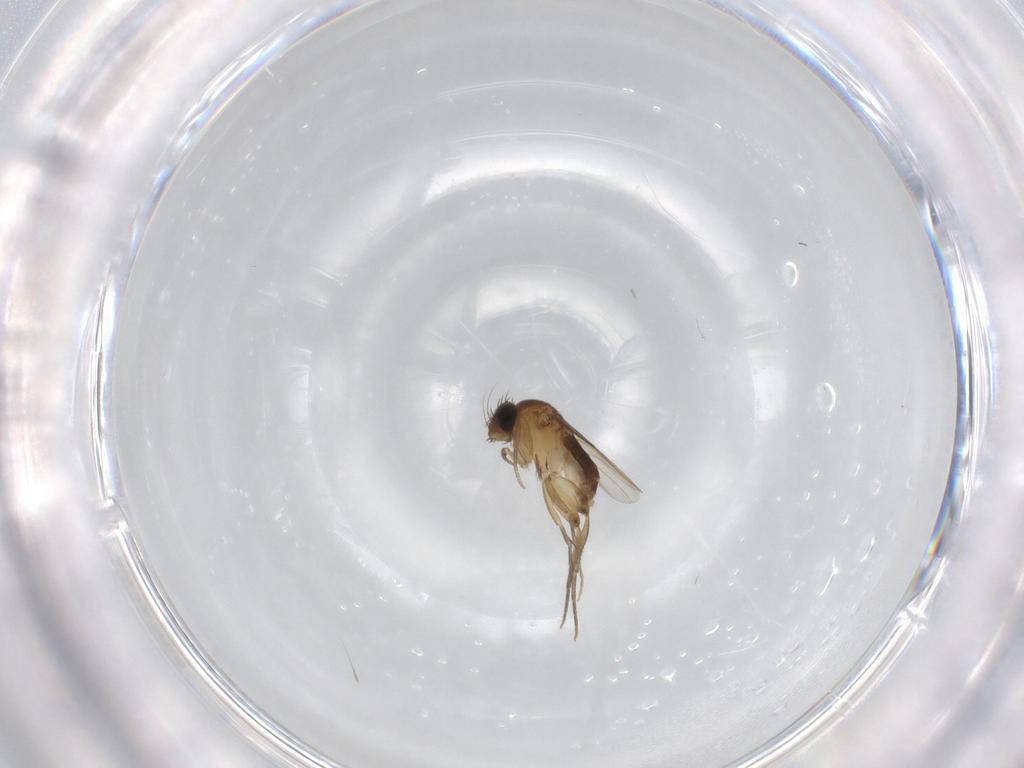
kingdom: Animalia
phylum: Arthropoda
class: Insecta
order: Diptera
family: Phoridae
